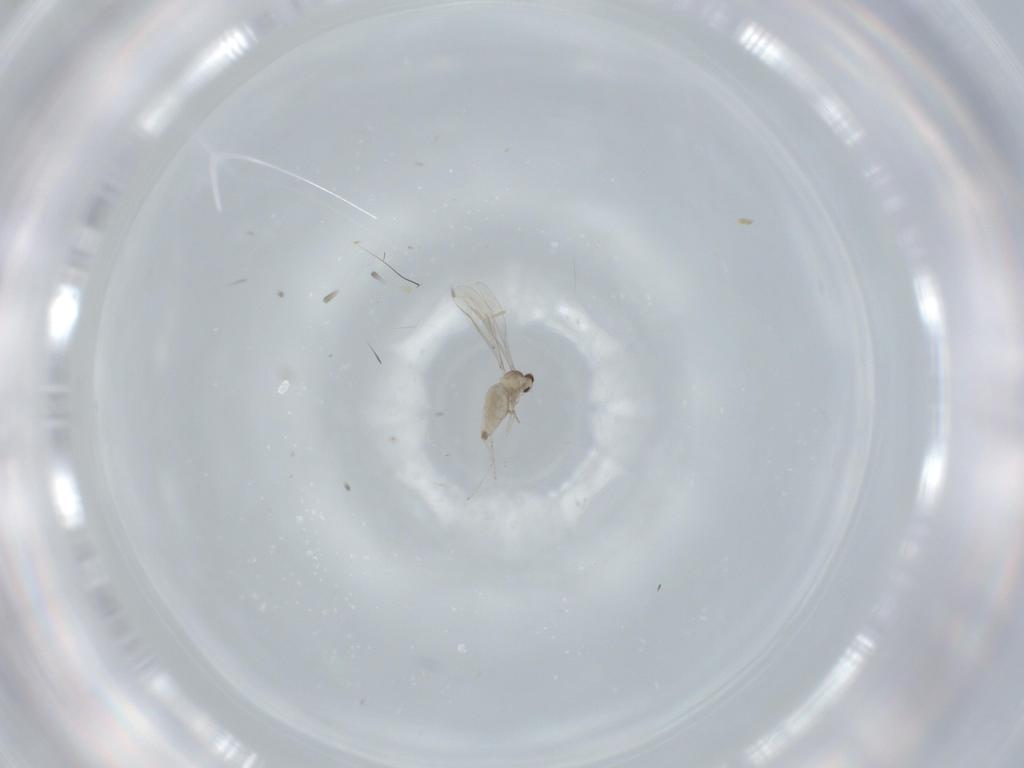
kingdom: Animalia
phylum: Arthropoda
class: Insecta
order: Diptera
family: Cecidomyiidae
